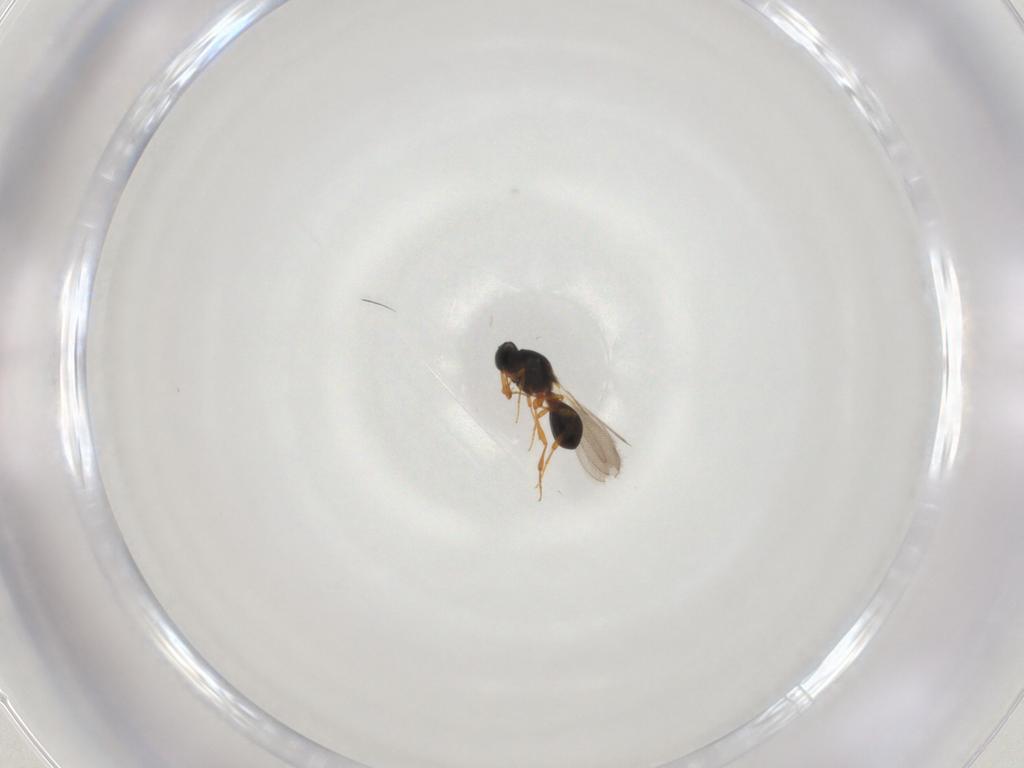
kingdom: Animalia
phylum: Arthropoda
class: Insecta
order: Hymenoptera
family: Platygastridae
